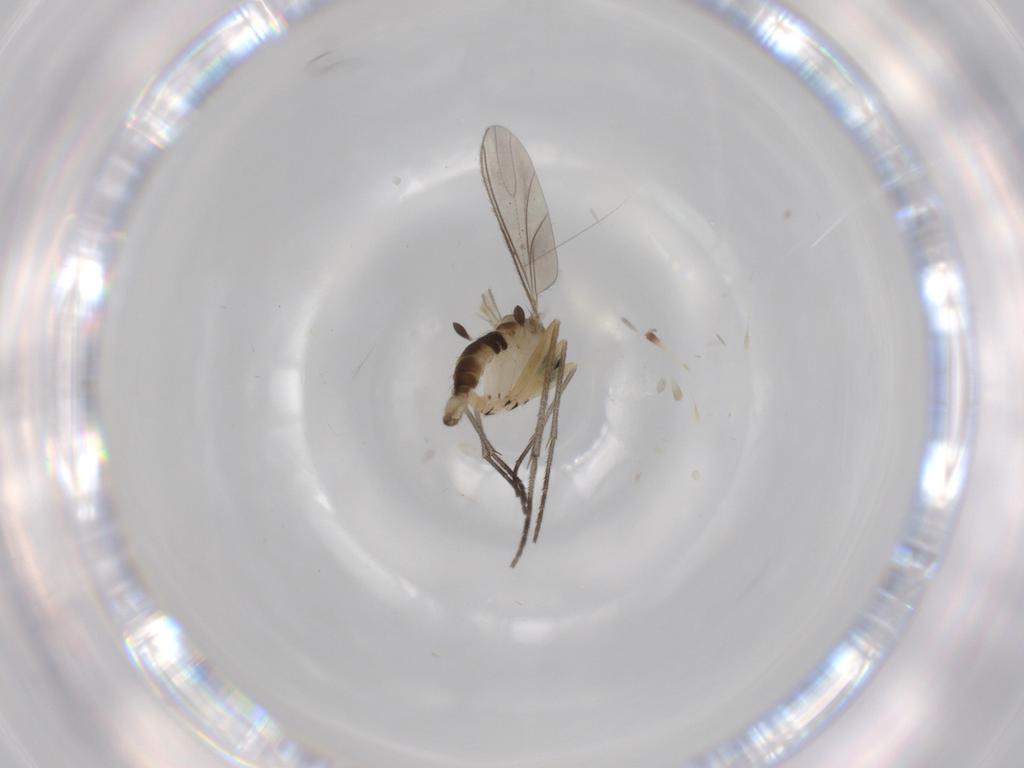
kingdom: Animalia
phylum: Arthropoda
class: Insecta
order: Diptera
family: Sciaridae
